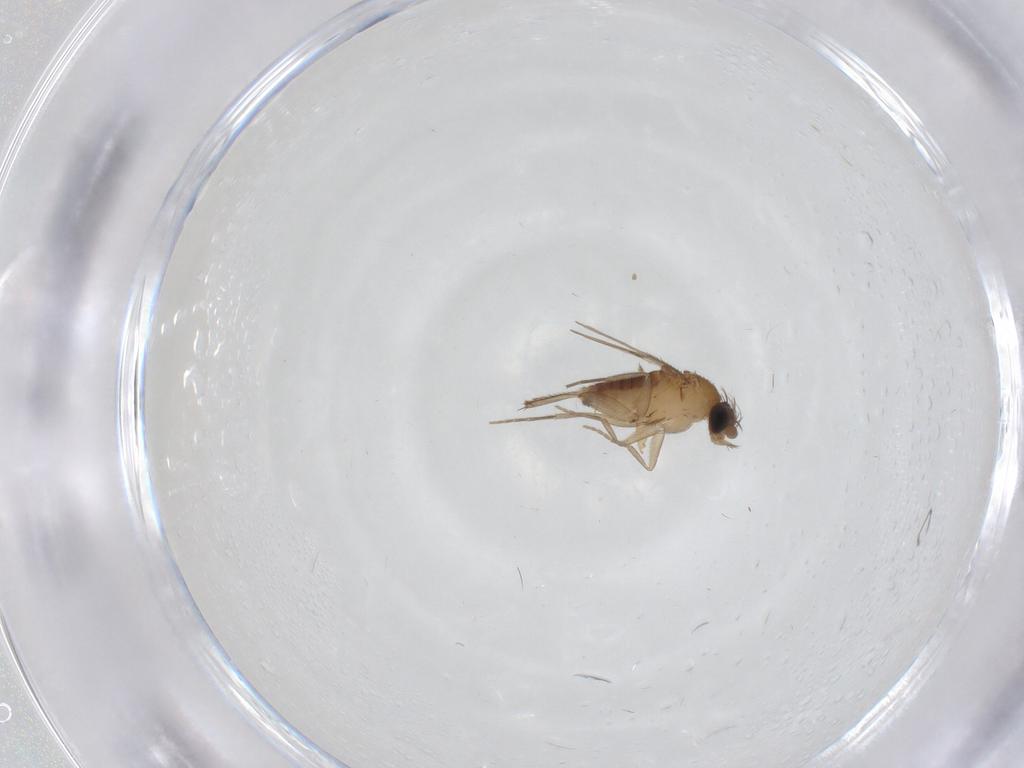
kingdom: Animalia
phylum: Arthropoda
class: Insecta
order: Diptera
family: Phoridae
